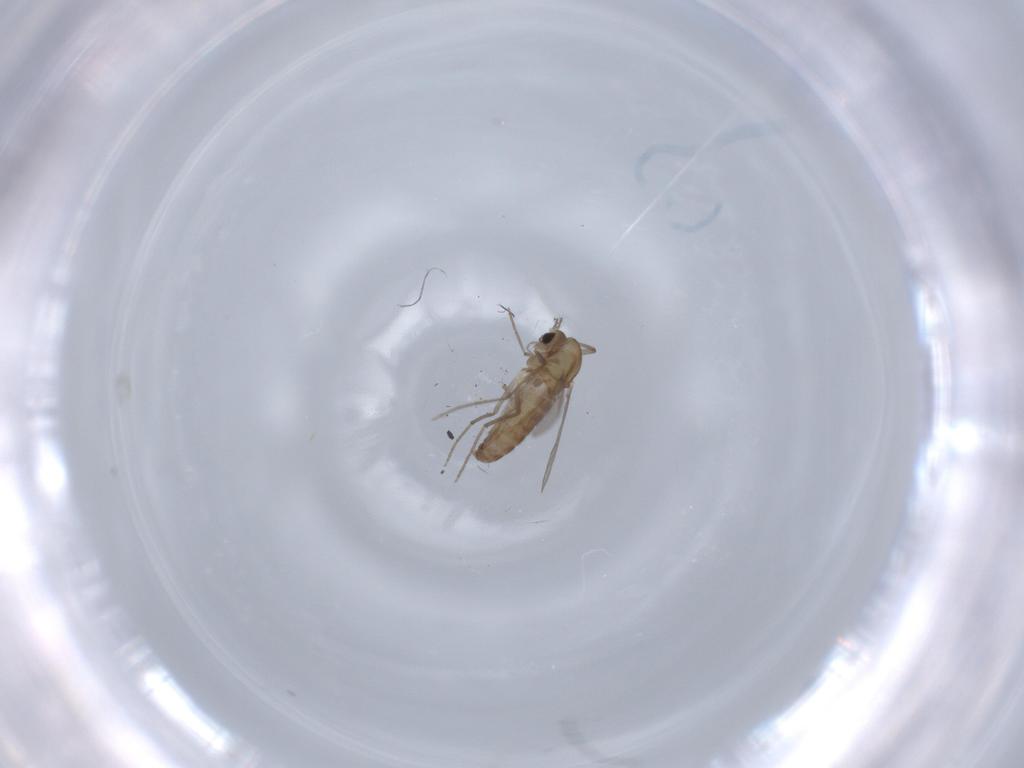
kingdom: Animalia
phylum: Arthropoda
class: Insecta
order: Diptera
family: Chironomidae
